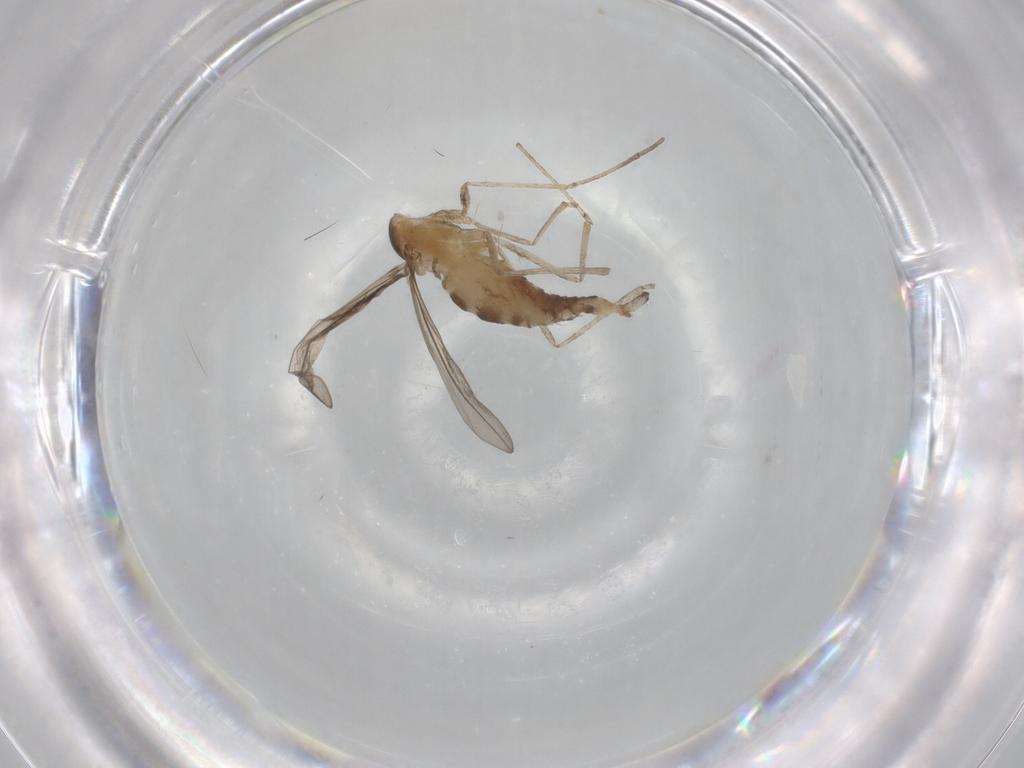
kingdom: Animalia
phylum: Arthropoda
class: Insecta
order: Diptera
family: Cecidomyiidae
